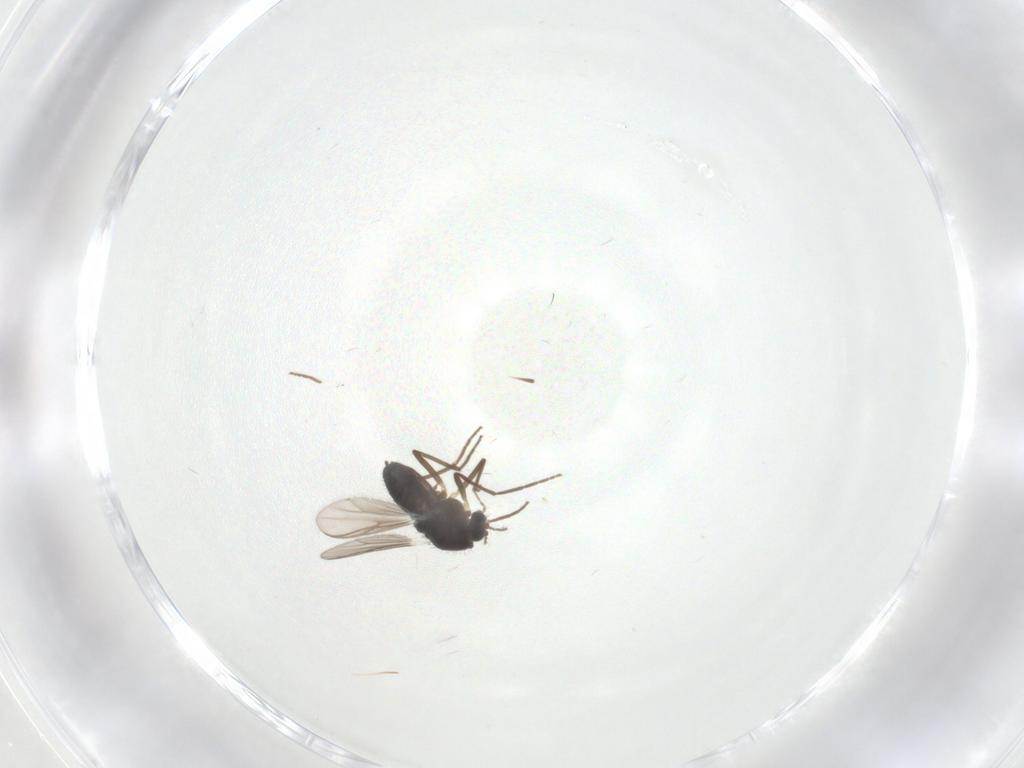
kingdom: Animalia
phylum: Arthropoda
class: Insecta
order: Diptera
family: Chironomidae
